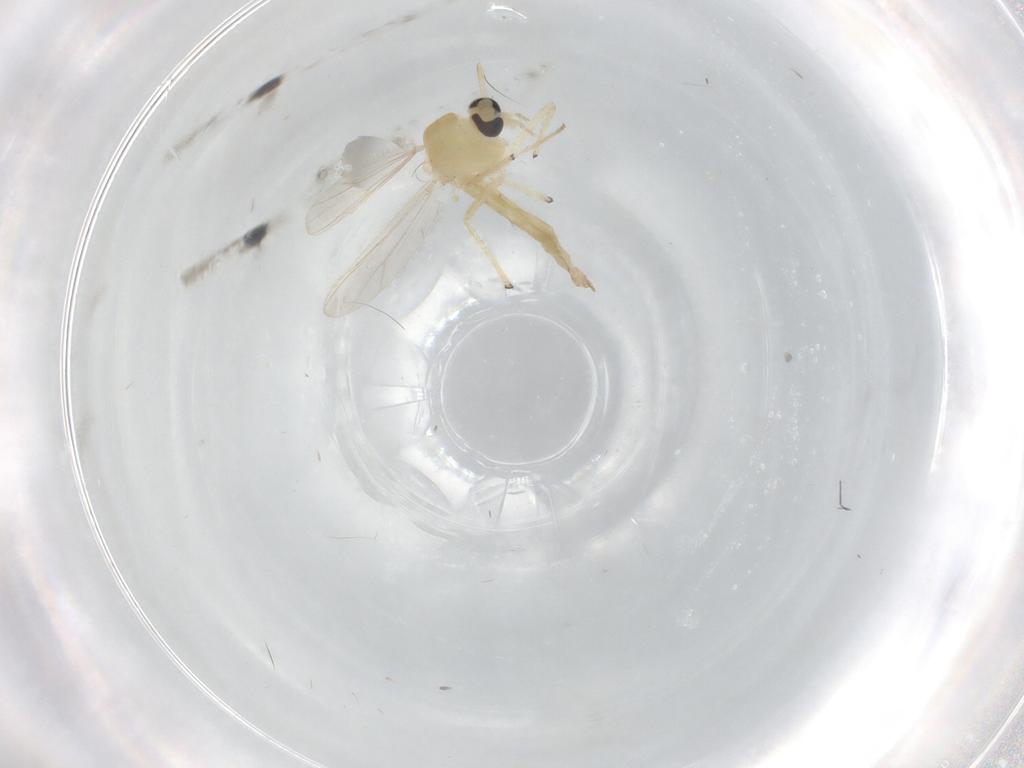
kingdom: Animalia
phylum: Arthropoda
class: Insecta
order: Diptera
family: Chironomidae
